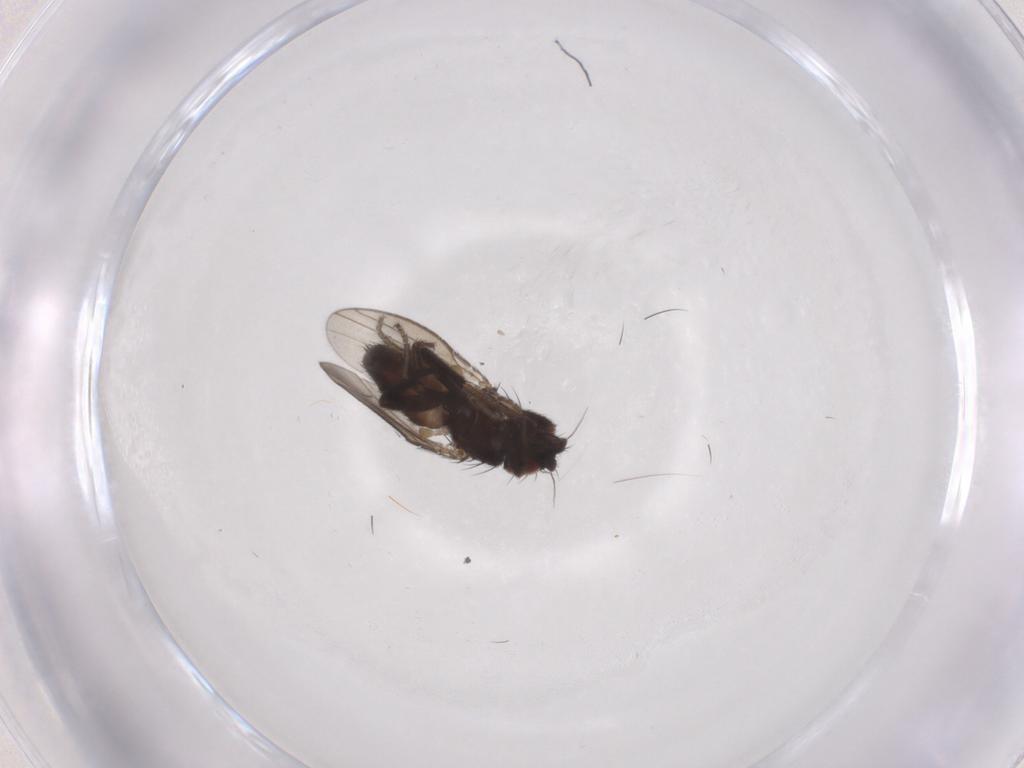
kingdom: Animalia
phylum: Arthropoda
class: Insecta
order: Diptera
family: Milichiidae
